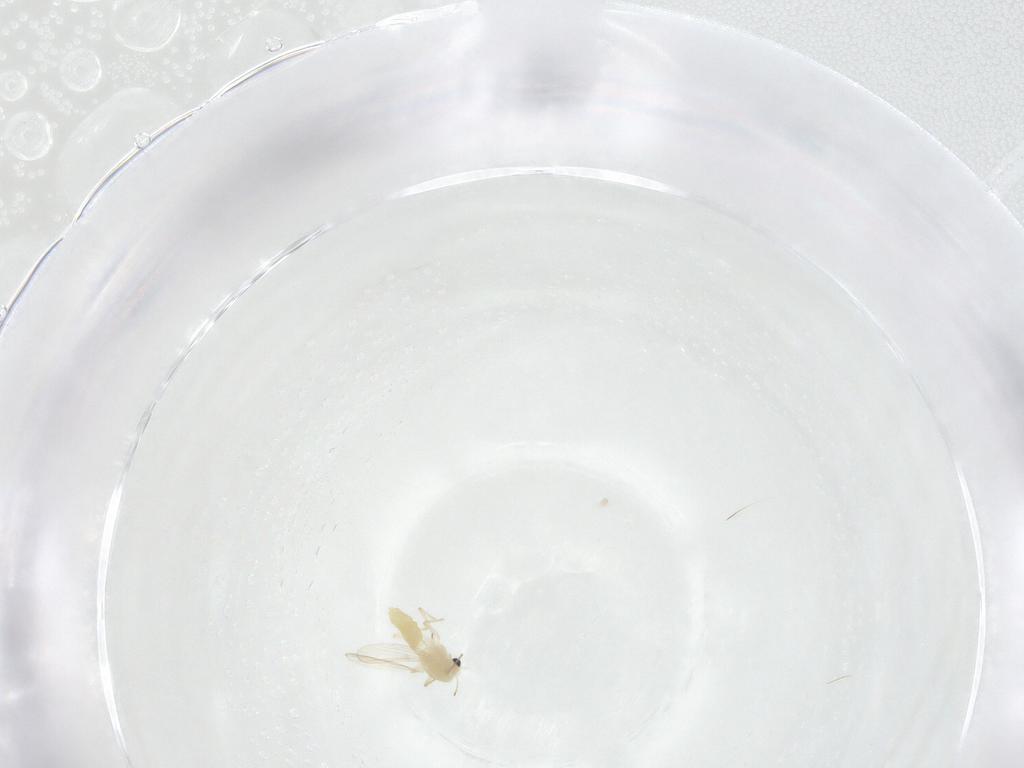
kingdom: Animalia
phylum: Arthropoda
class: Insecta
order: Diptera
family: Chironomidae
